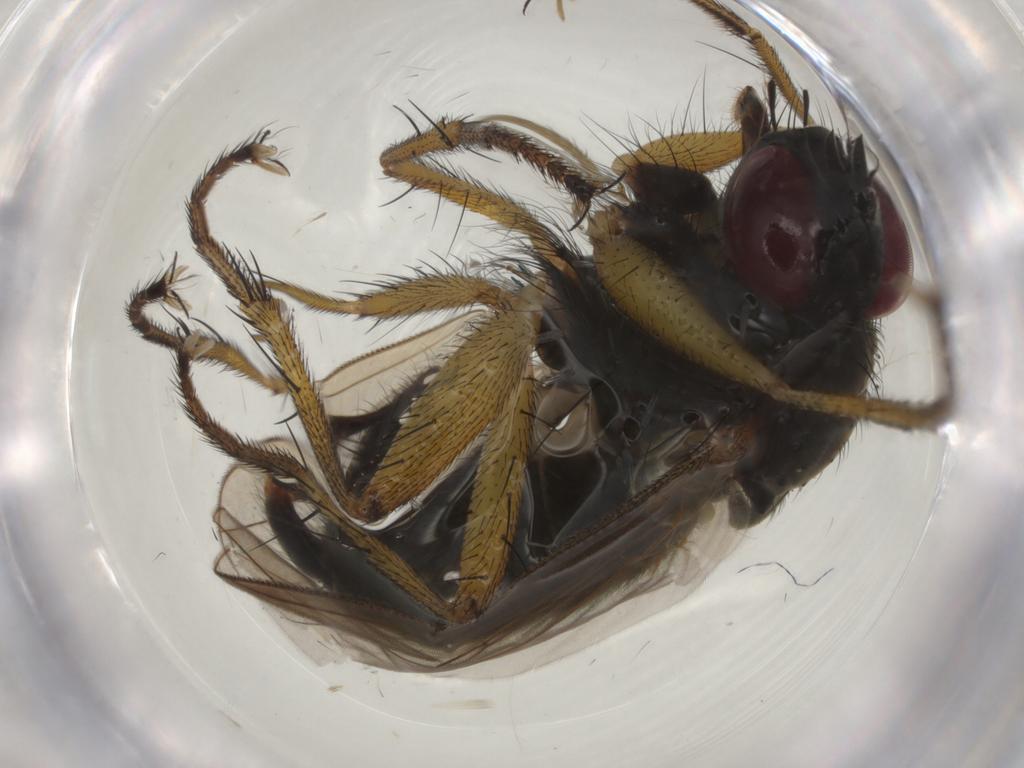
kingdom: Animalia
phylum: Arthropoda
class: Insecta
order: Diptera
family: Muscidae
